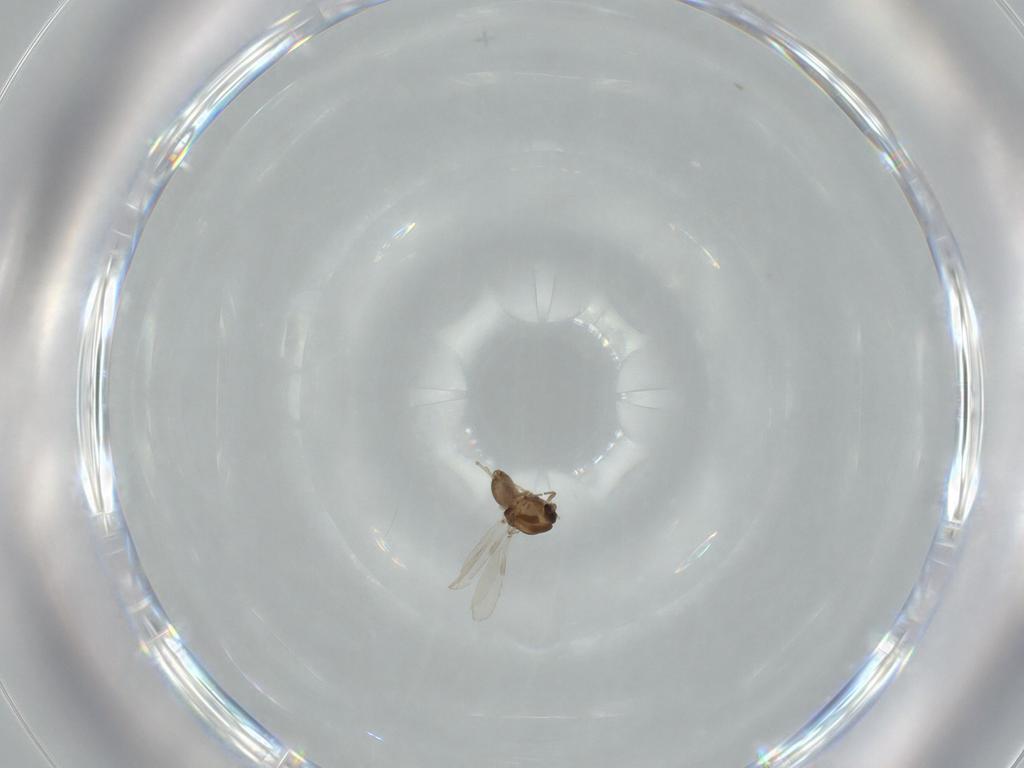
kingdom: Animalia
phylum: Arthropoda
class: Insecta
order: Diptera
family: Chironomidae
